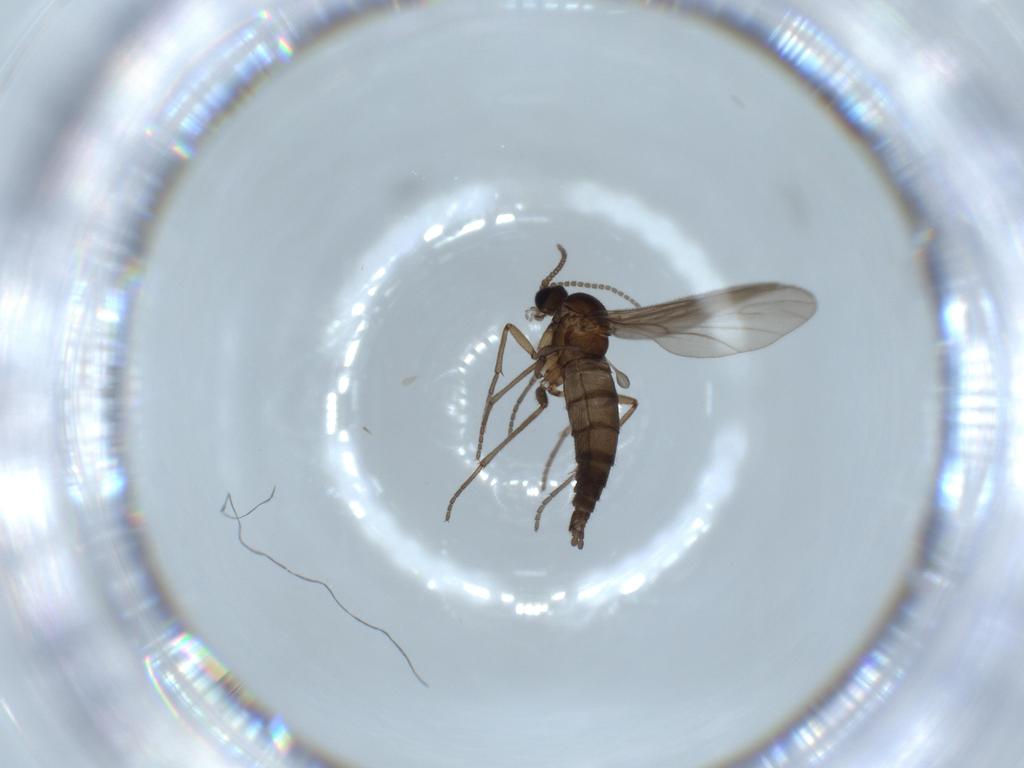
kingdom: Animalia
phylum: Arthropoda
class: Insecta
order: Diptera
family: Sciaridae
